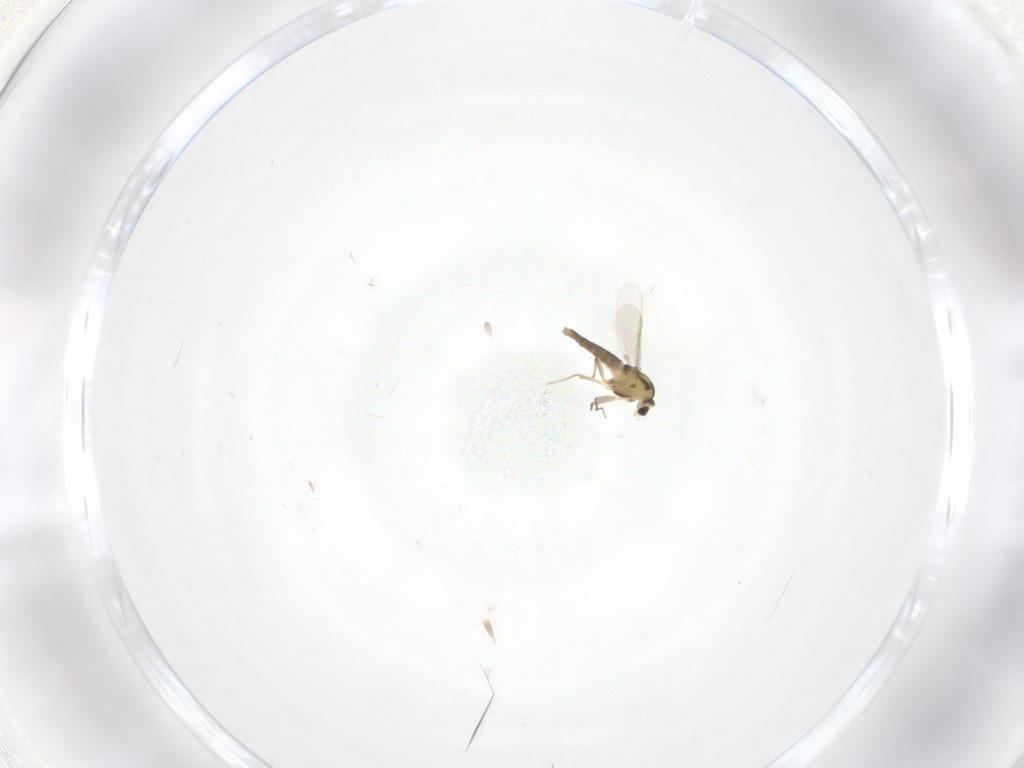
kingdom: Animalia
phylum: Arthropoda
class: Insecta
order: Diptera
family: Chironomidae
